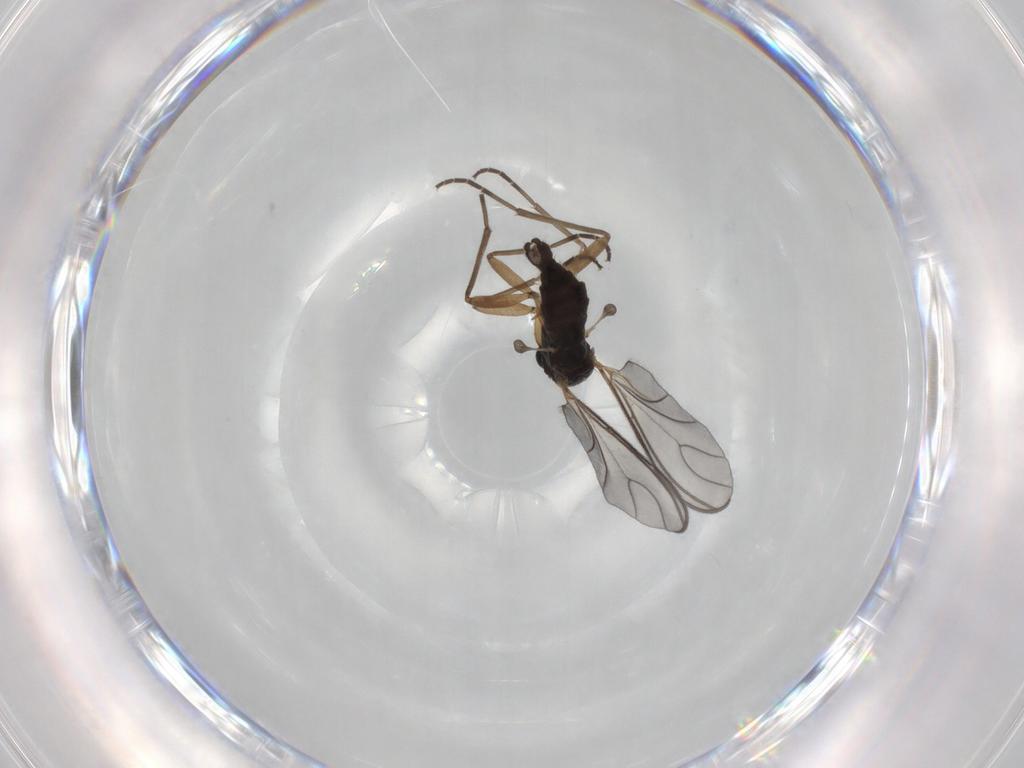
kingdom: Animalia
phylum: Arthropoda
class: Insecta
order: Diptera
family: Sciaridae
